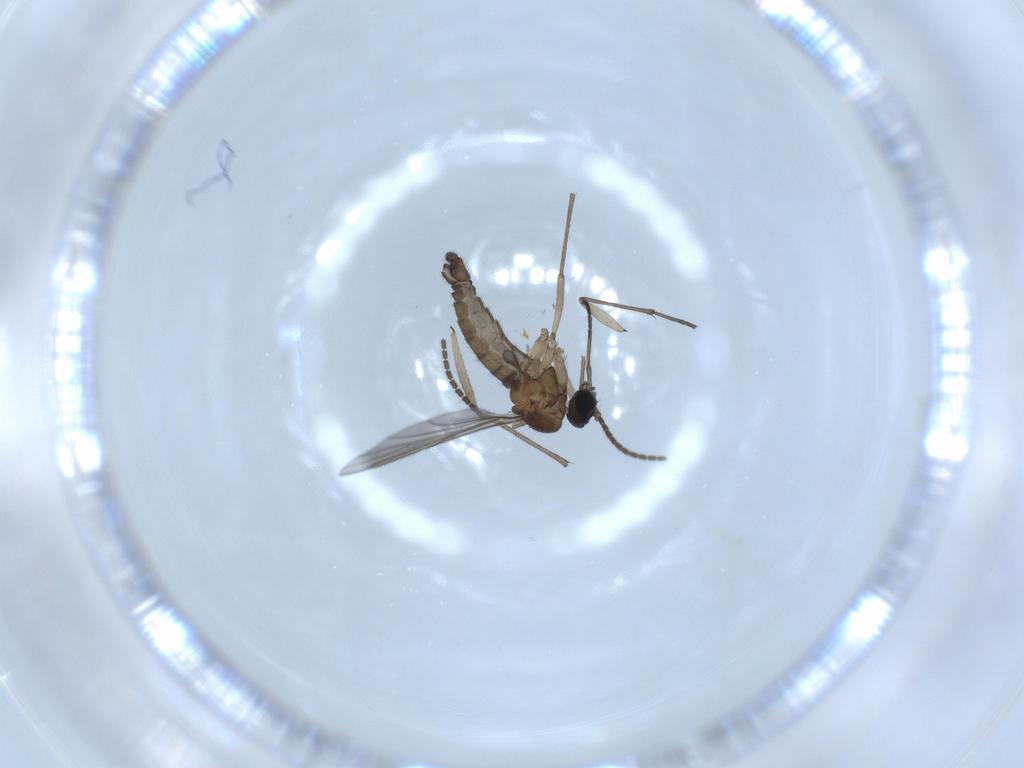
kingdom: Animalia
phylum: Arthropoda
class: Insecta
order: Diptera
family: Sciaridae
